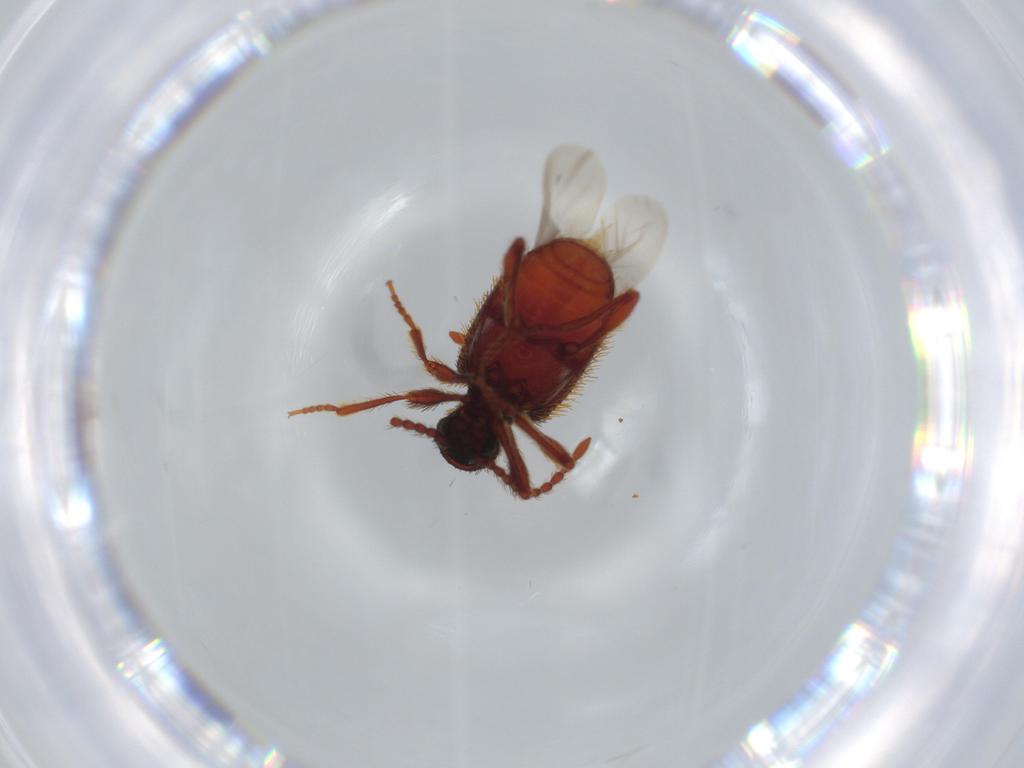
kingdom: Animalia
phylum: Arthropoda
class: Insecta
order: Coleoptera
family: Ptinidae
